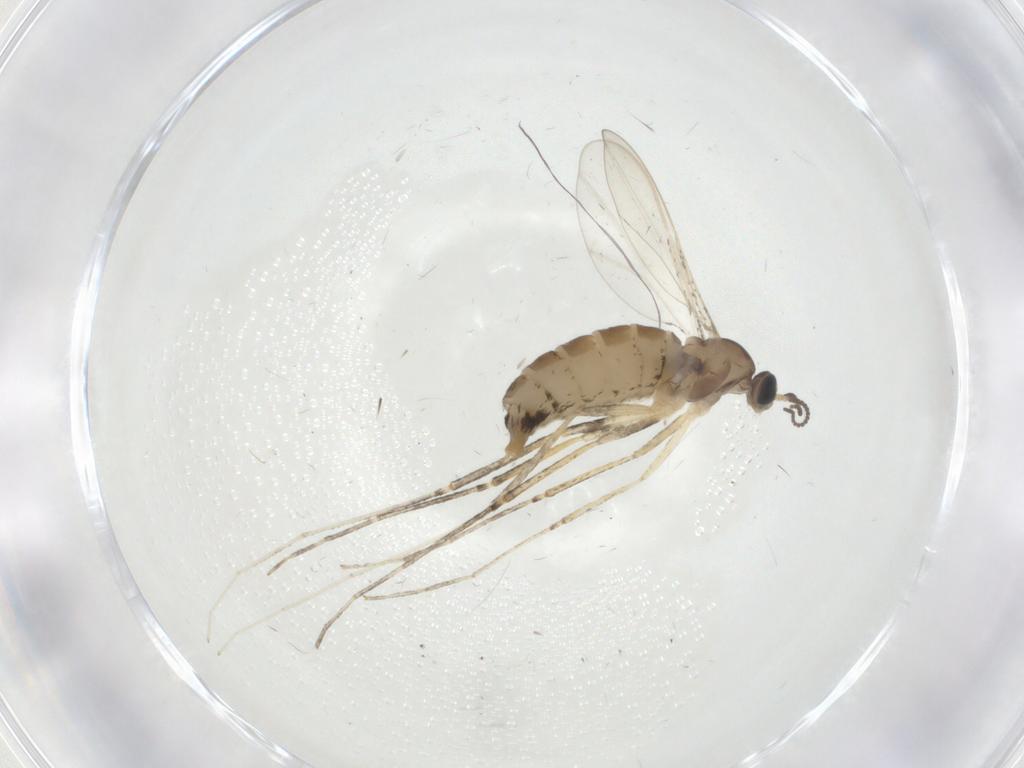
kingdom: Animalia
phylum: Arthropoda
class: Insecta
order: Diptera
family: Cecidomyiidae
